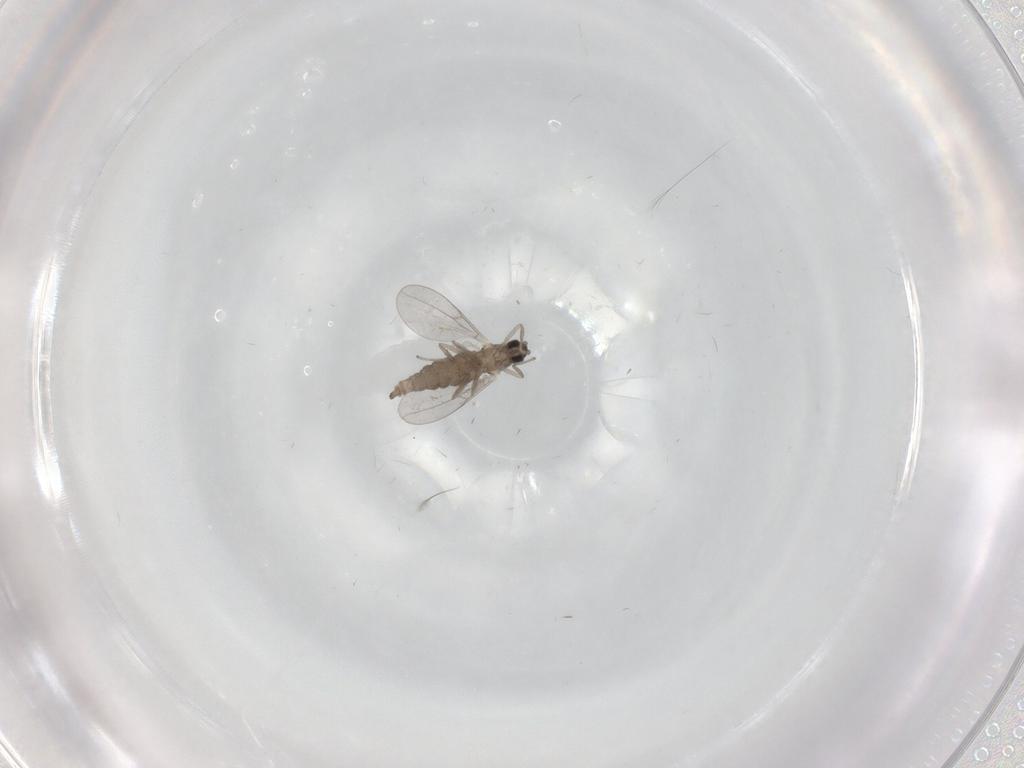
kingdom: Animalia
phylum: Arthropoda
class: Insecta
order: Diptera
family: Cecidomyiidae
